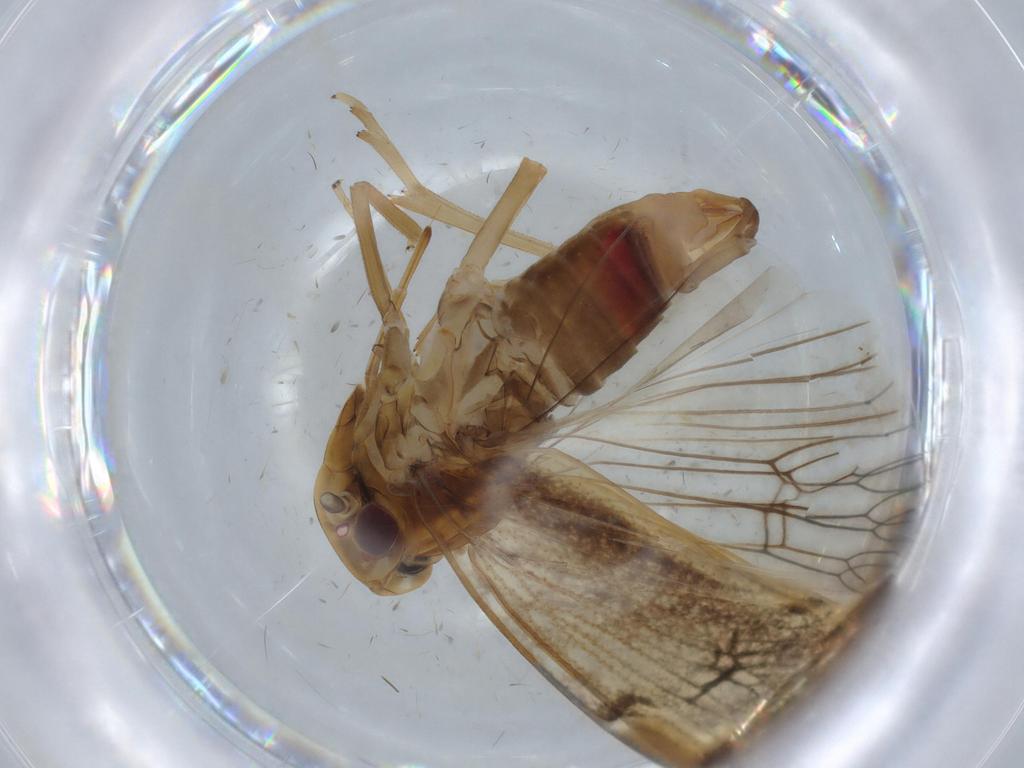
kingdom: Animalia
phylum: Arthropoda
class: Insecta
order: Hemiptera
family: Cixiidae
